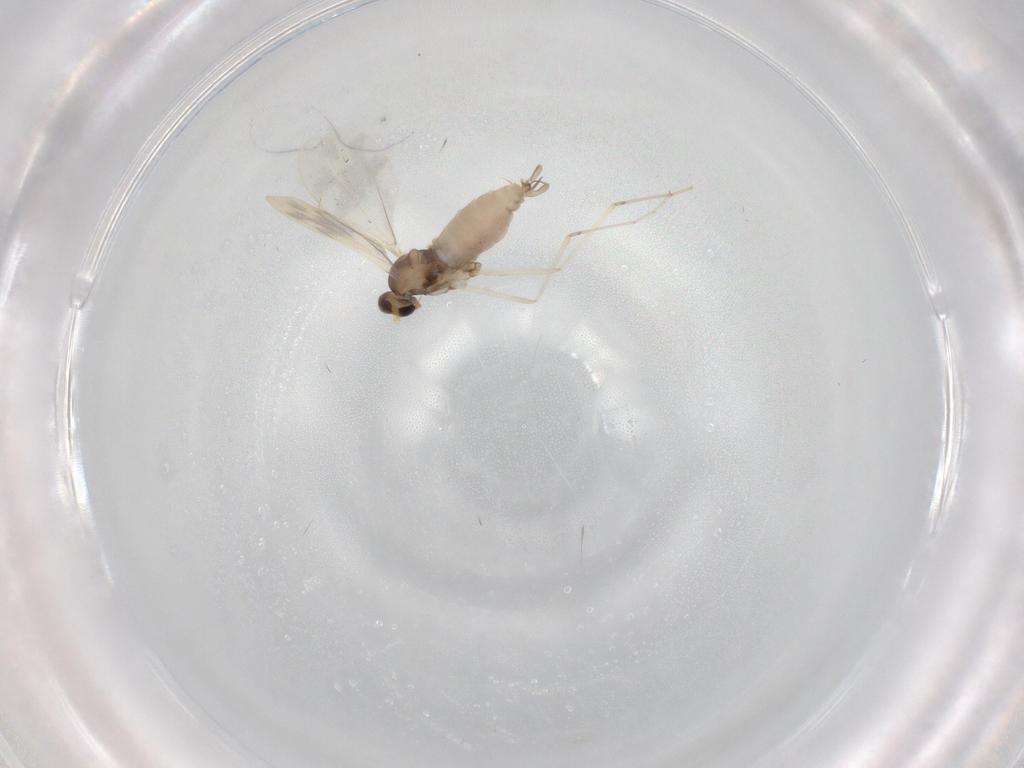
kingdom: Animalia
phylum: Arthropoda
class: Insecta
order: Diptera
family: Cecidomyiidae
